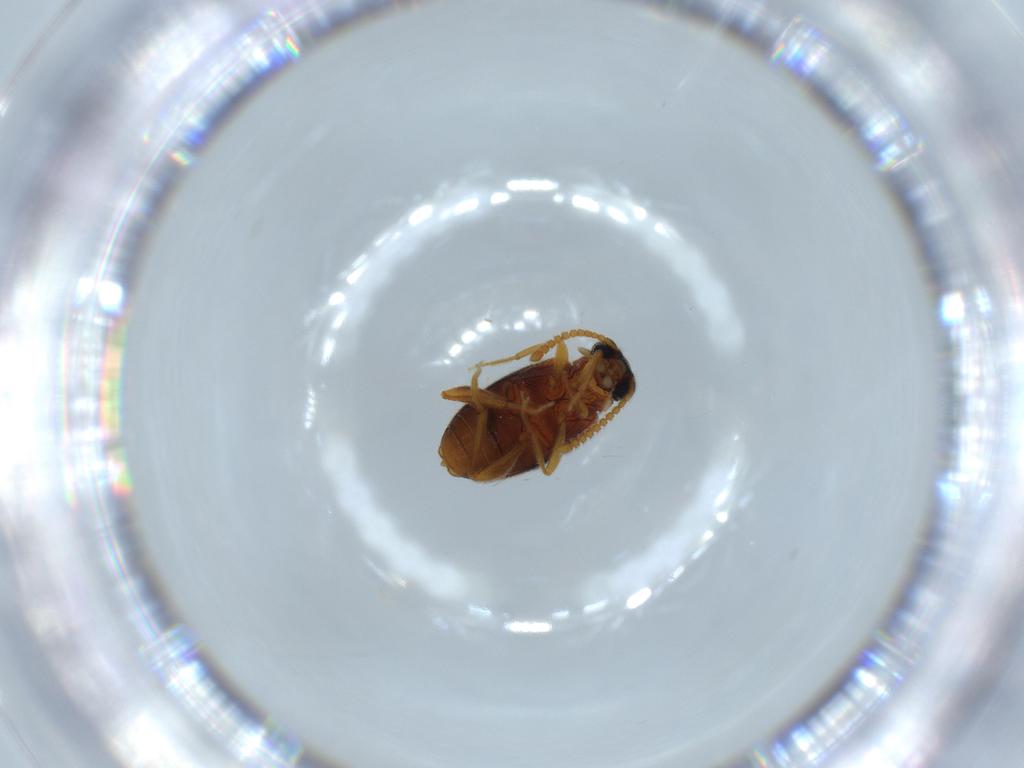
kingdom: Animalia
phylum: Arthropoda
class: Insecta
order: Coleoptera
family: Aderidae
